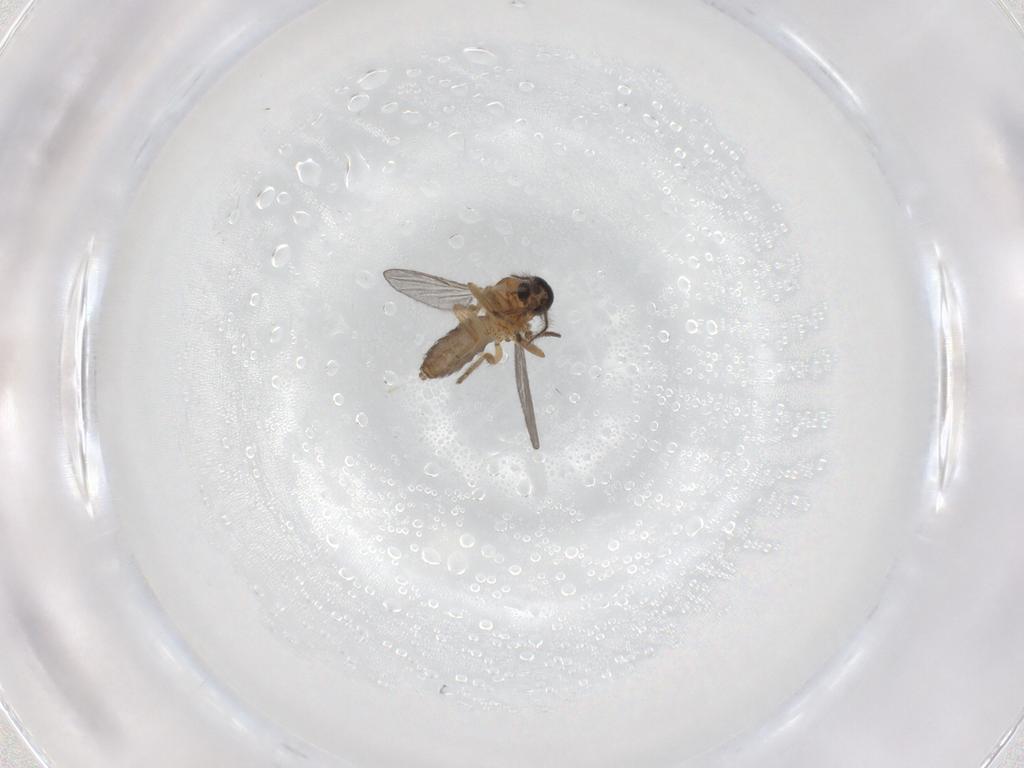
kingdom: Animalia
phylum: Arthropoda
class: Insecta
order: Diptera
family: Ceratopogonidae
